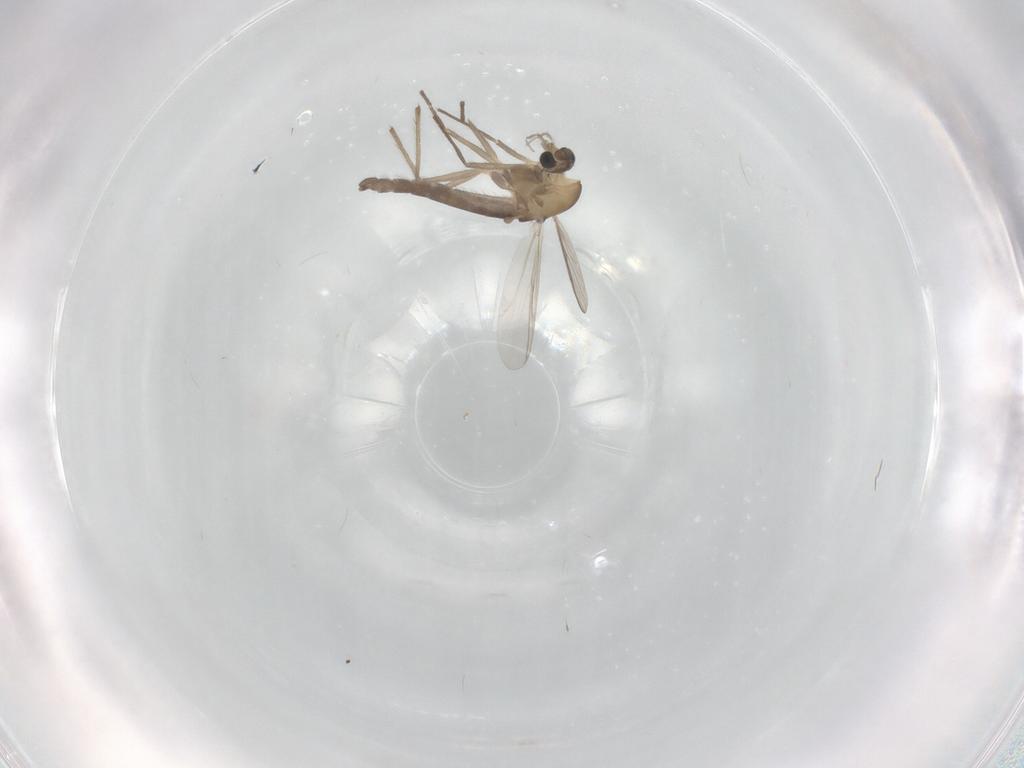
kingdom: Animalia
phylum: Arthropoda
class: Insecta
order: Diptera
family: Chironomidae
